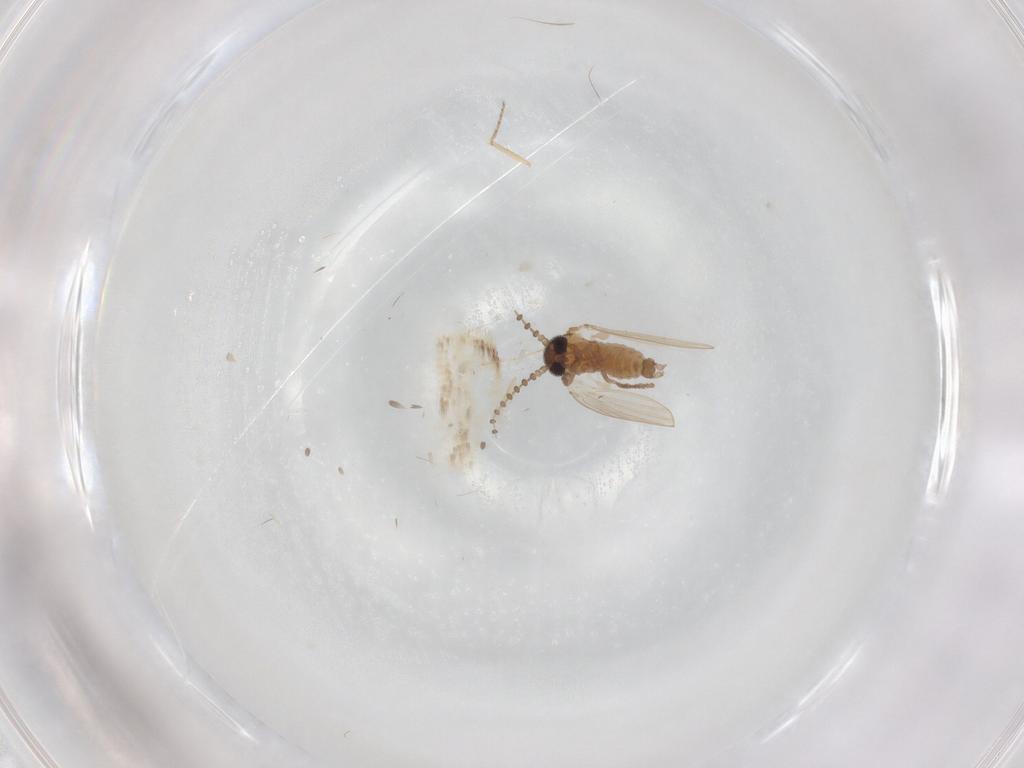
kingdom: Animalia
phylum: Arthropoda
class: Insecta
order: Diptera
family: Cecidomyiidae
